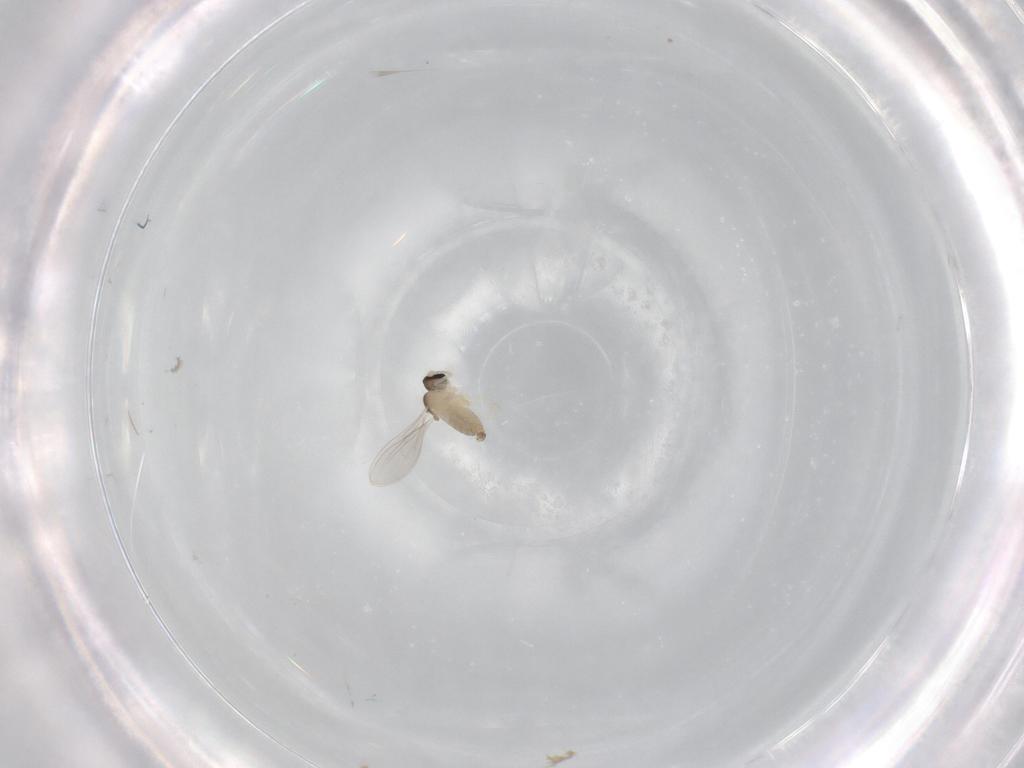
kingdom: Animalia
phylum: Arthropoda
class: Insecta
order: Diptera
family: Cecidomyiidae
